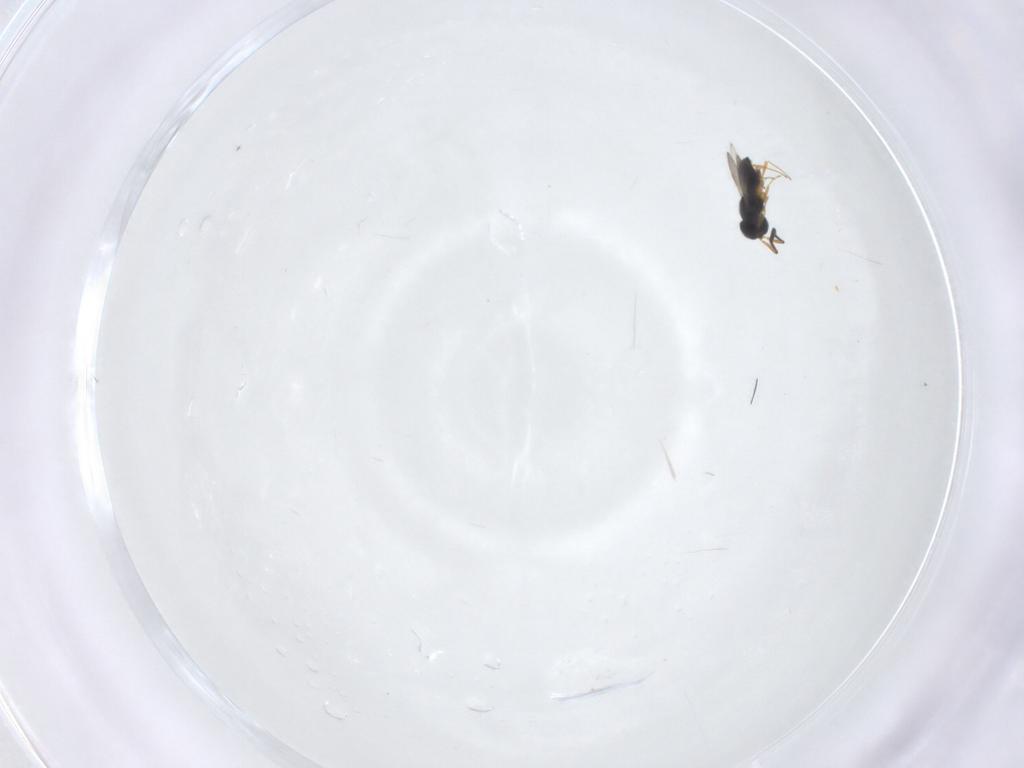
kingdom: Animalia
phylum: Arthropoda
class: Insecta
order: Hymenoptera
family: Scelionidae
